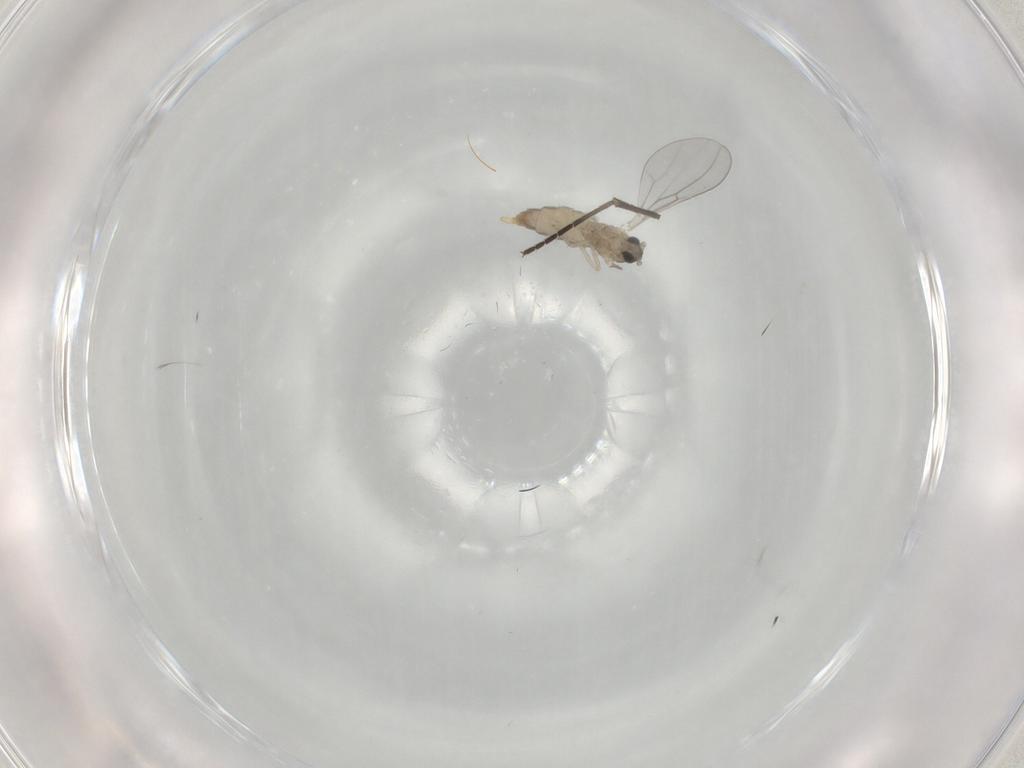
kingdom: Animalia
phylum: Arthropoda
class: Insecta
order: Diptera
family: Cecidomyiidae
